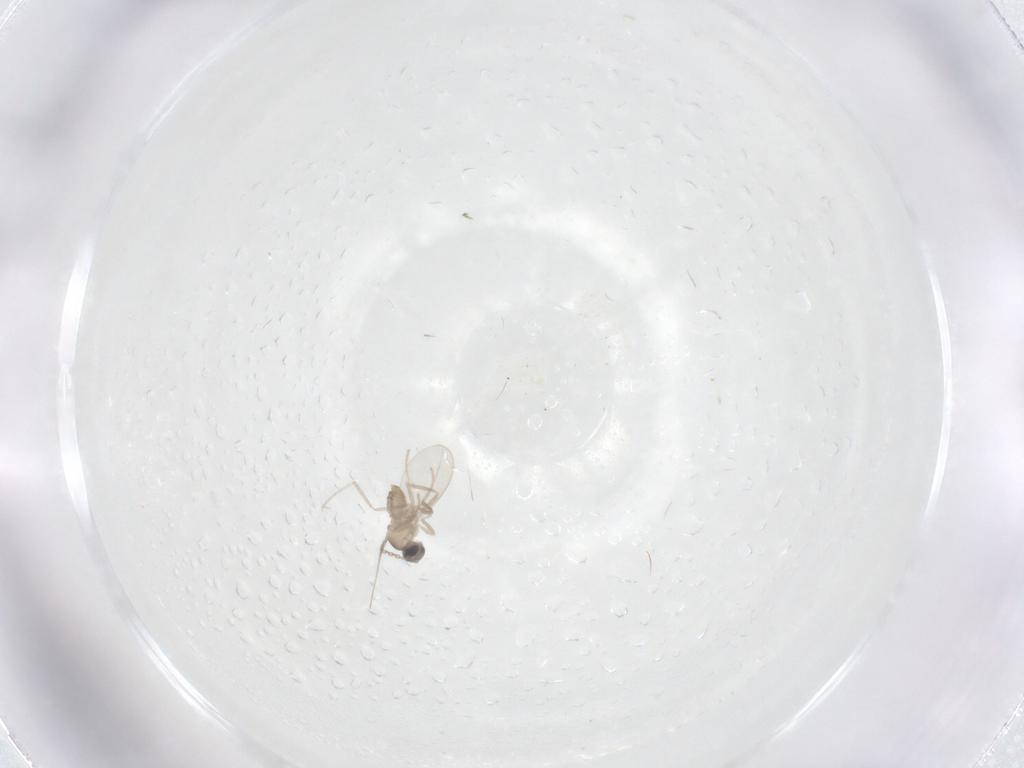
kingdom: Animalia
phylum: Arthropoda
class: Insecta
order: Diptera
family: Cecidomyiidae
